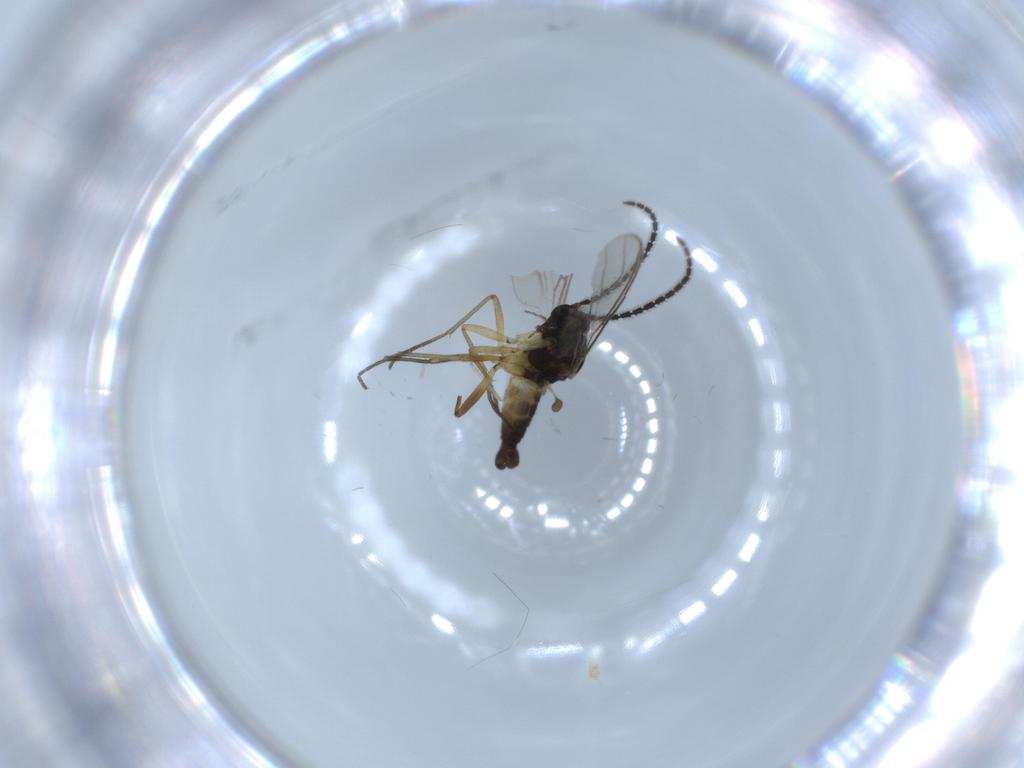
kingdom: Animalia
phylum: Arthropoda
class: Insecta
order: Diptera
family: Sciaridae
